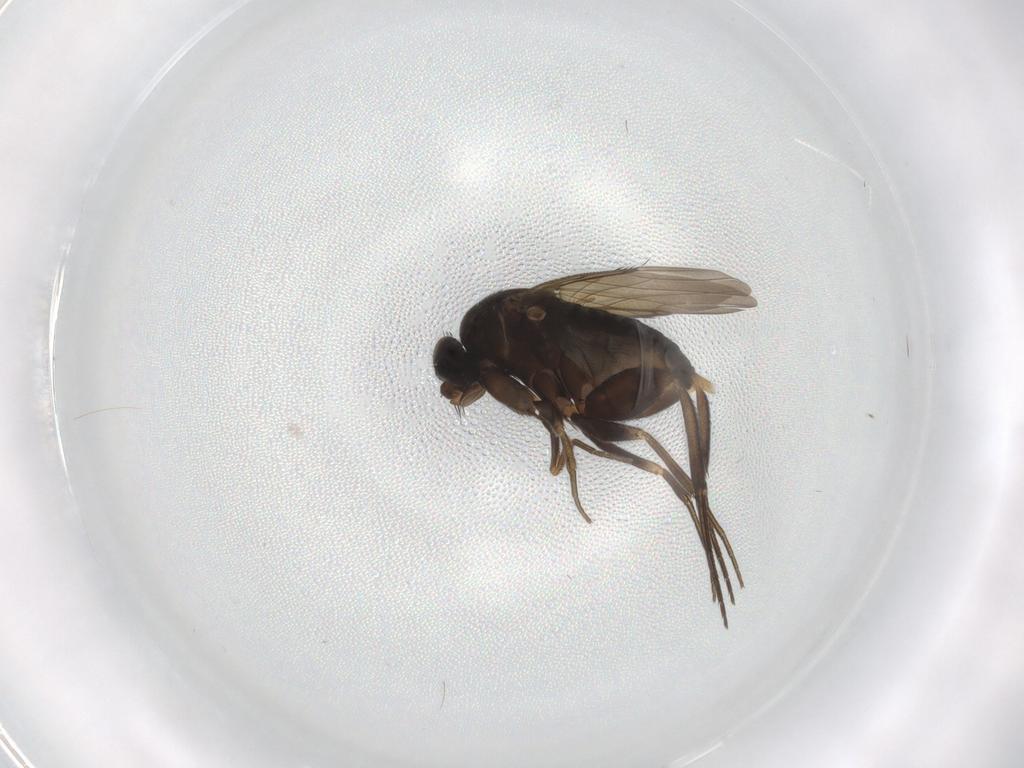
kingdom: Animalia
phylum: Arthropoda
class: Insecta
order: Diptera
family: Phoridae
